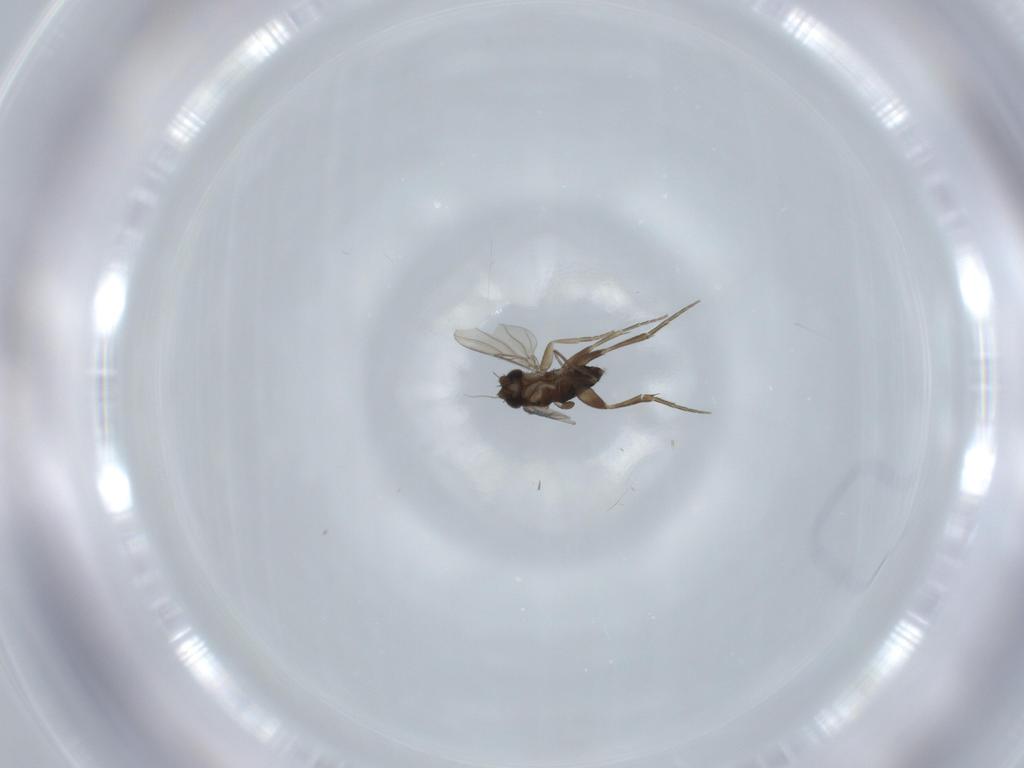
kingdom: Animalia
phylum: Arthropoda
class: Insecta
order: Diptera
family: Phoridae
